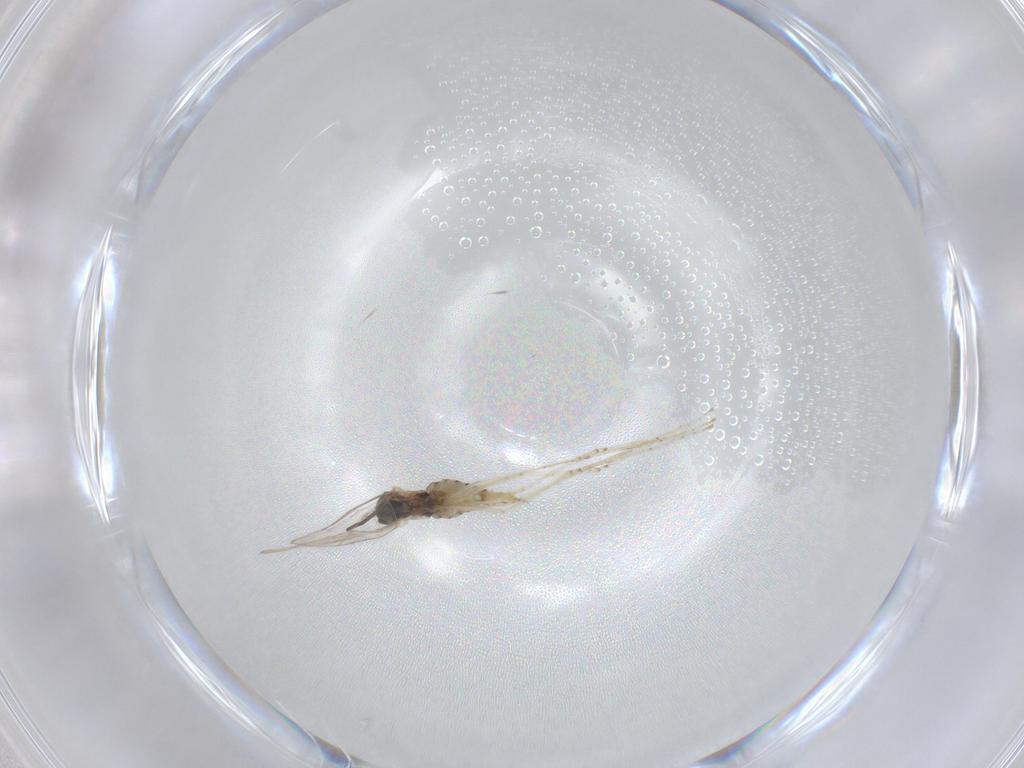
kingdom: Animalia
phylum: Arthropoda
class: Insecta
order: Diptera
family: Cecidomyiidae
